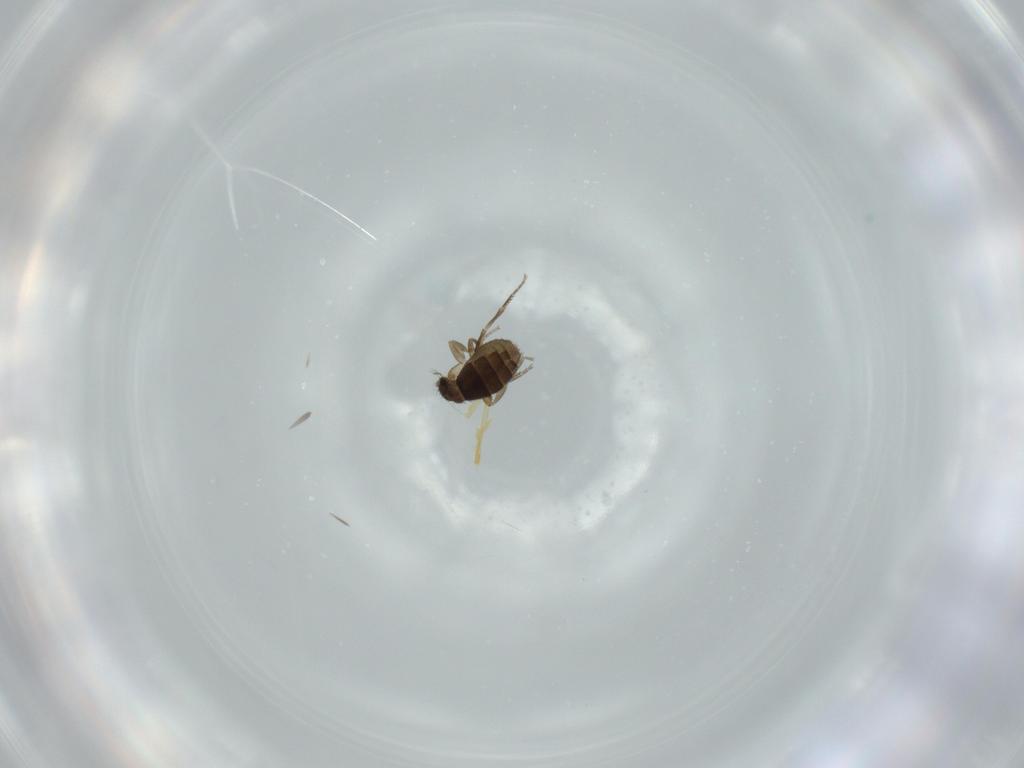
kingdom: Animalia
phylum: Arthropoda
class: Insecta
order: Diptera
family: Phoridae
